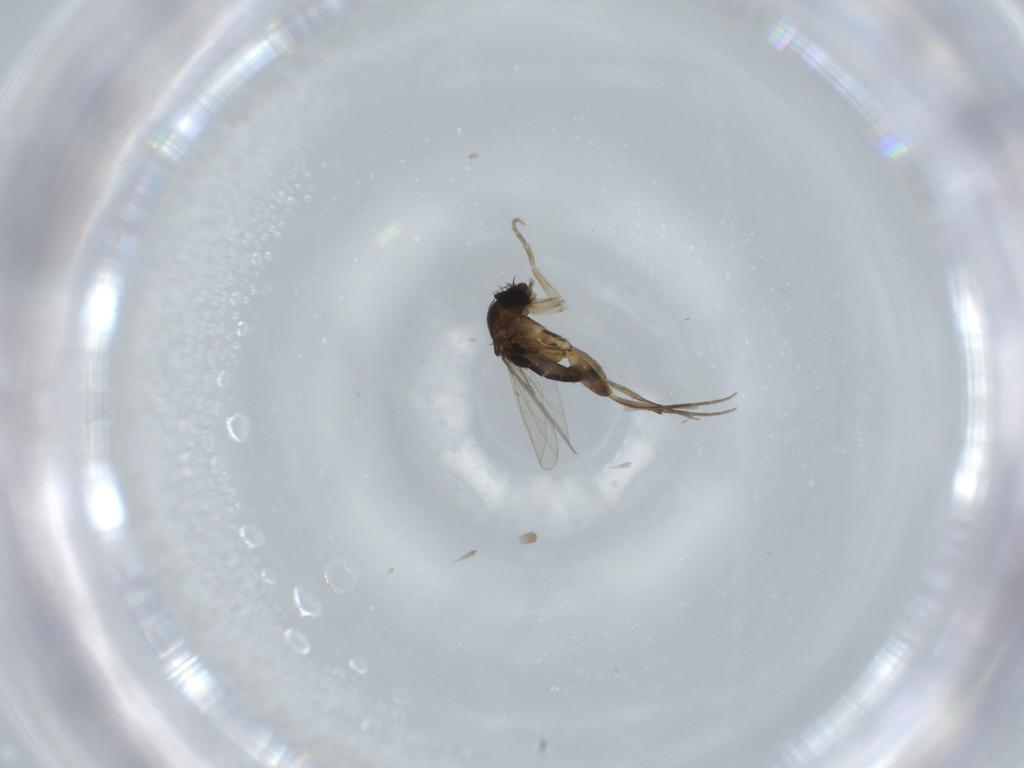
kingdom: Animalia
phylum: Arthropoda
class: Insecta
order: Diptera
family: Phoridae
